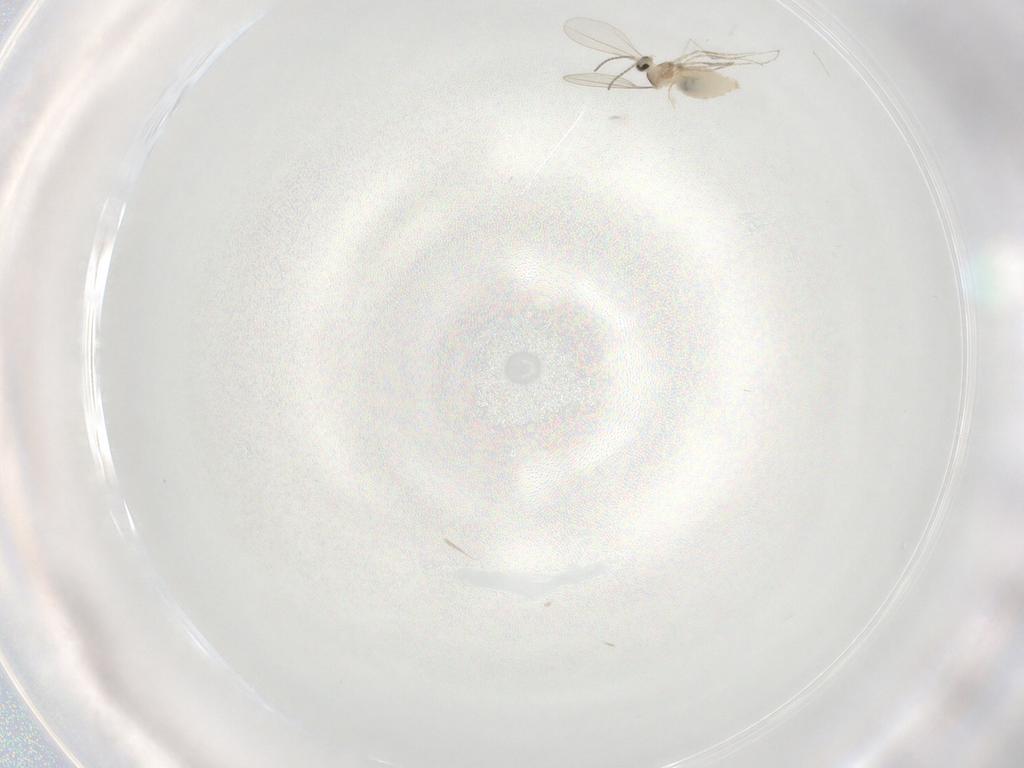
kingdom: Animalia
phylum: Arthropoda
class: Insecta
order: Diptera
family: Cecidomyiidae
